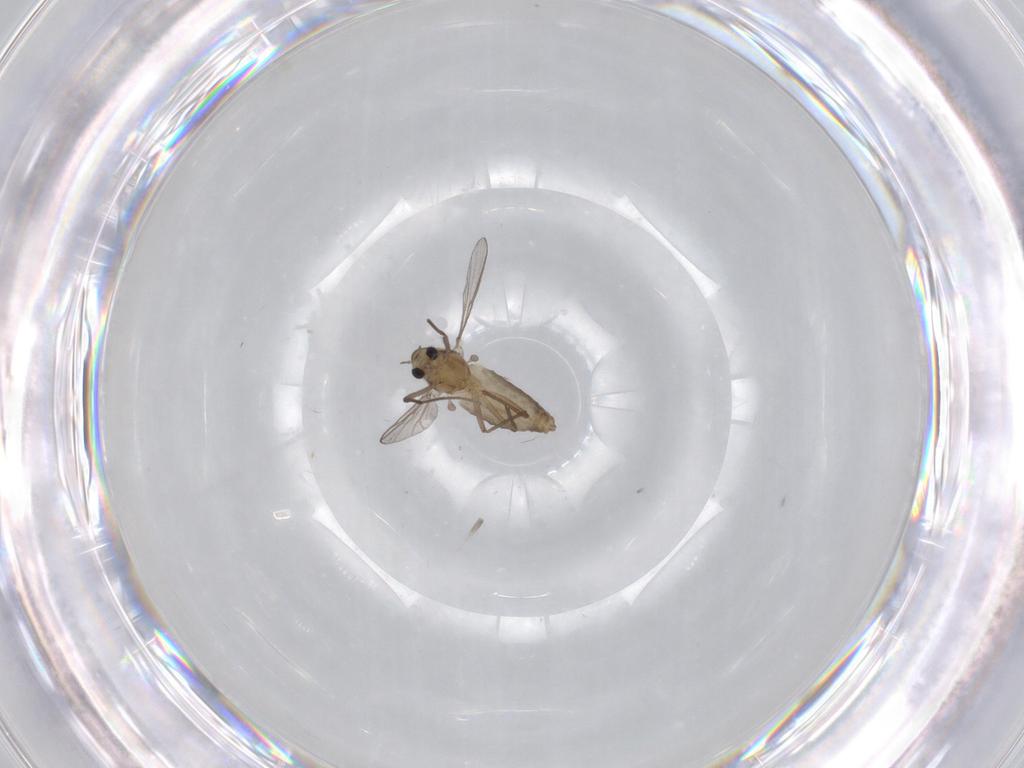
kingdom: Animalia
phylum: Arthropoda
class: Insecta
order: Diptera
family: Chironomidae
